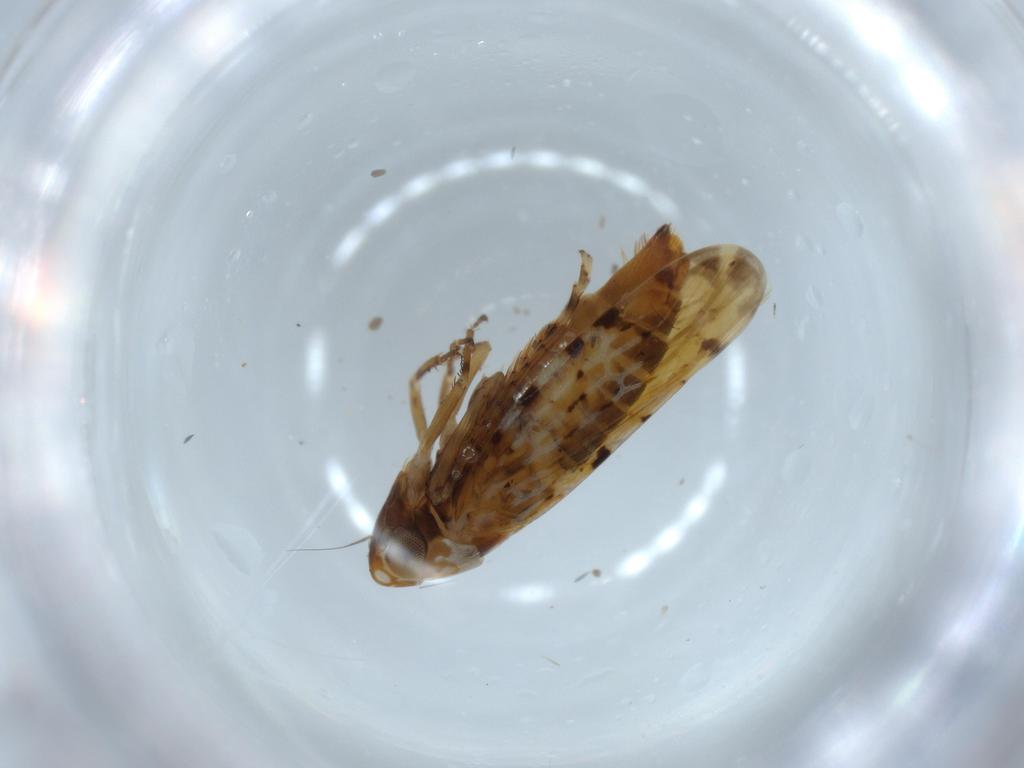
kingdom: Animalia
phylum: Arthropoda
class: Insecta
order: Hemiptera
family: Cicadellidae
